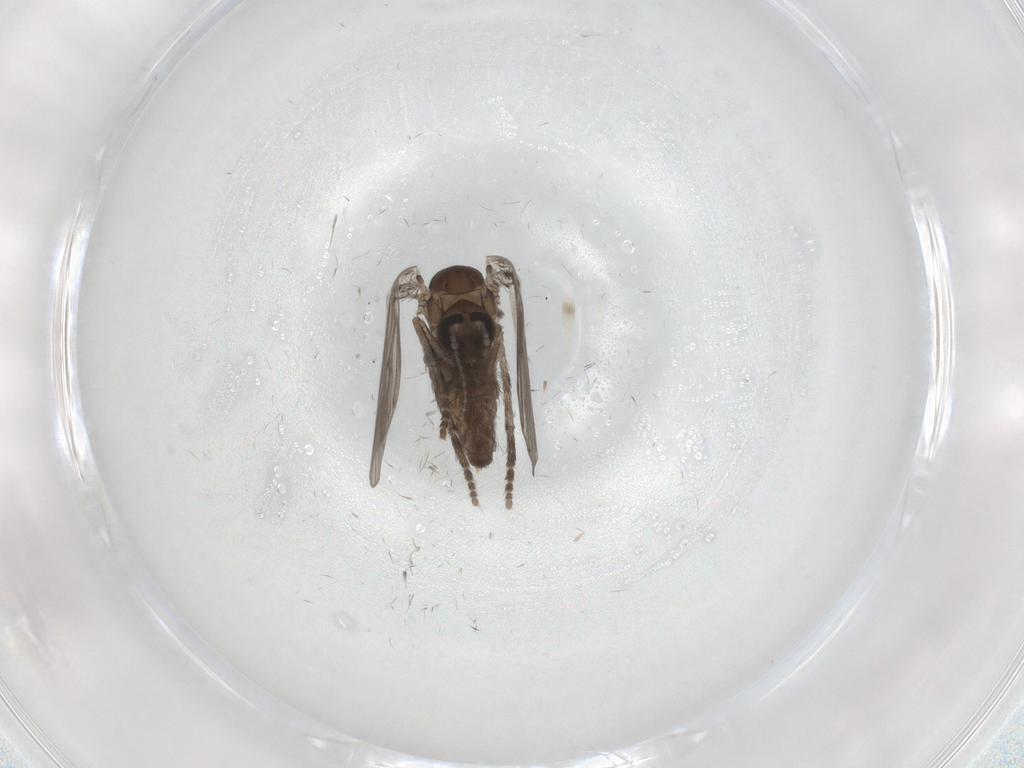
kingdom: Animalia
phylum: Arthropoda
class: Insecta
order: Diptera
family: Psychodidae
